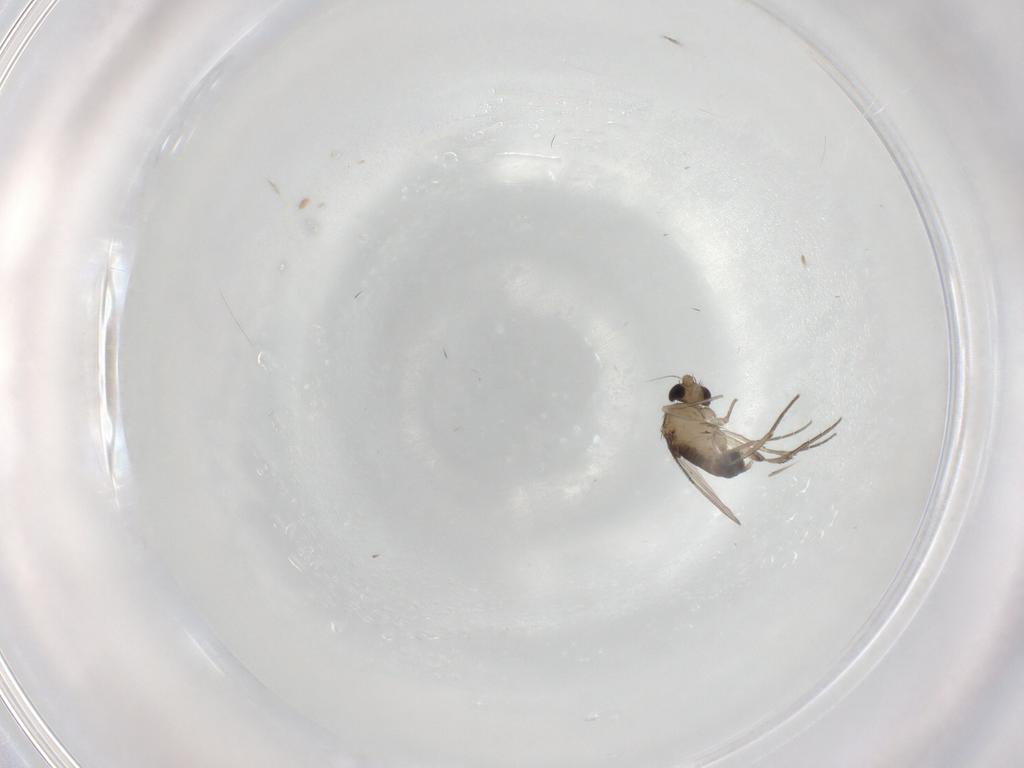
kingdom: Animalia
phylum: Arthropoda
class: Insecta
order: Diptera
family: Phoridae
